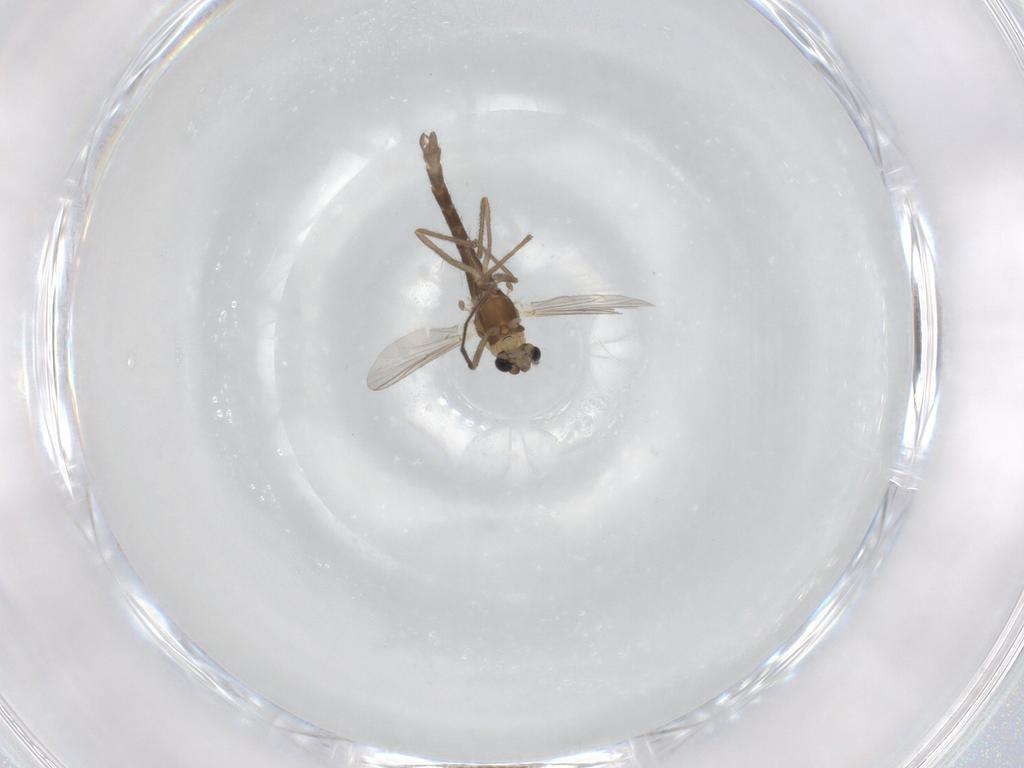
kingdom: Animalia
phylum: Arthropoda
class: Insecta
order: Diptera
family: Chironomidae
